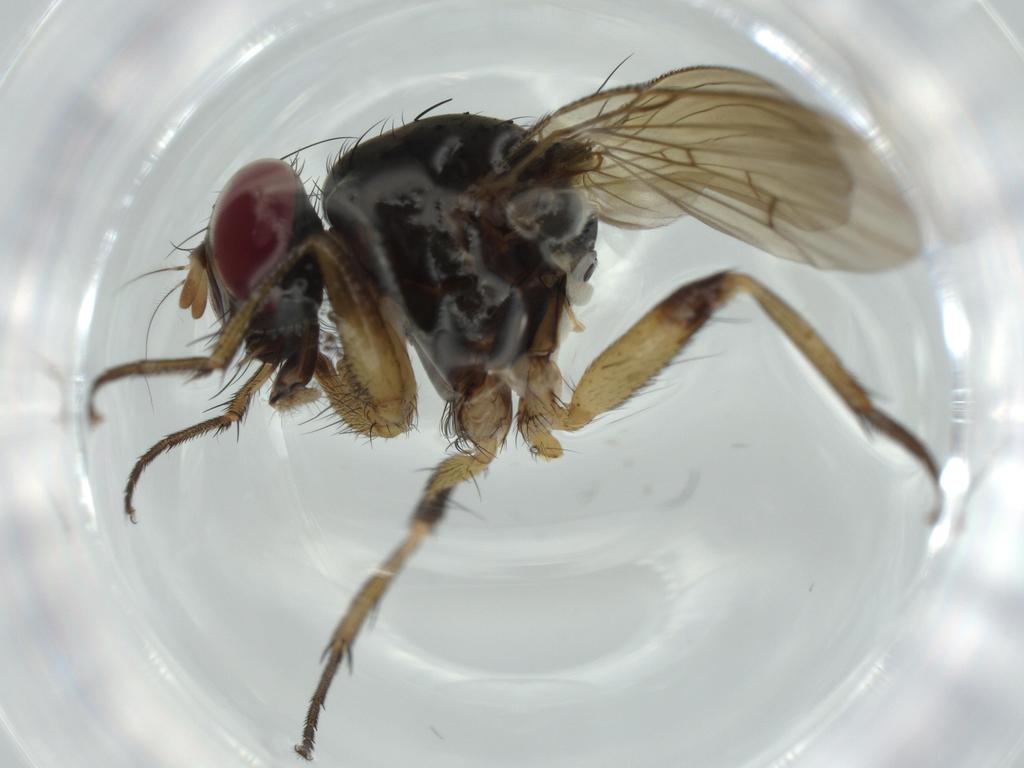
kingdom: Animalia
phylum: Arthropoda
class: Insecta
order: Diptera
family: Muscidae
